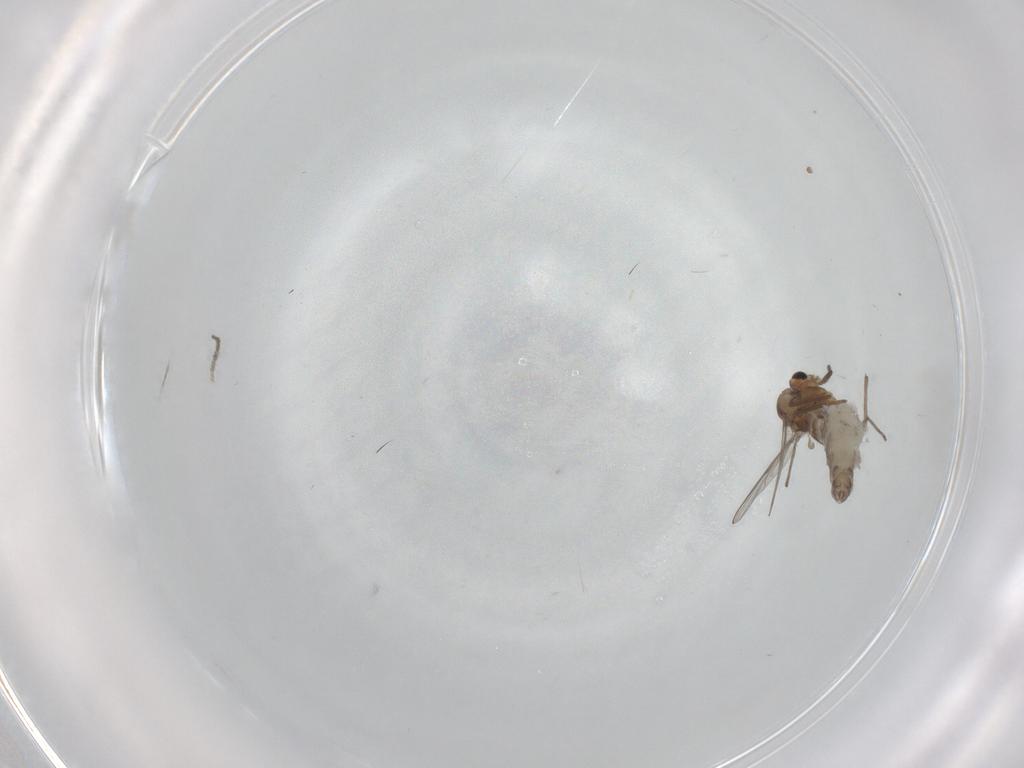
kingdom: Animalia
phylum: Arthropoda
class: Insecta
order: Diptera
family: Chironomidae
